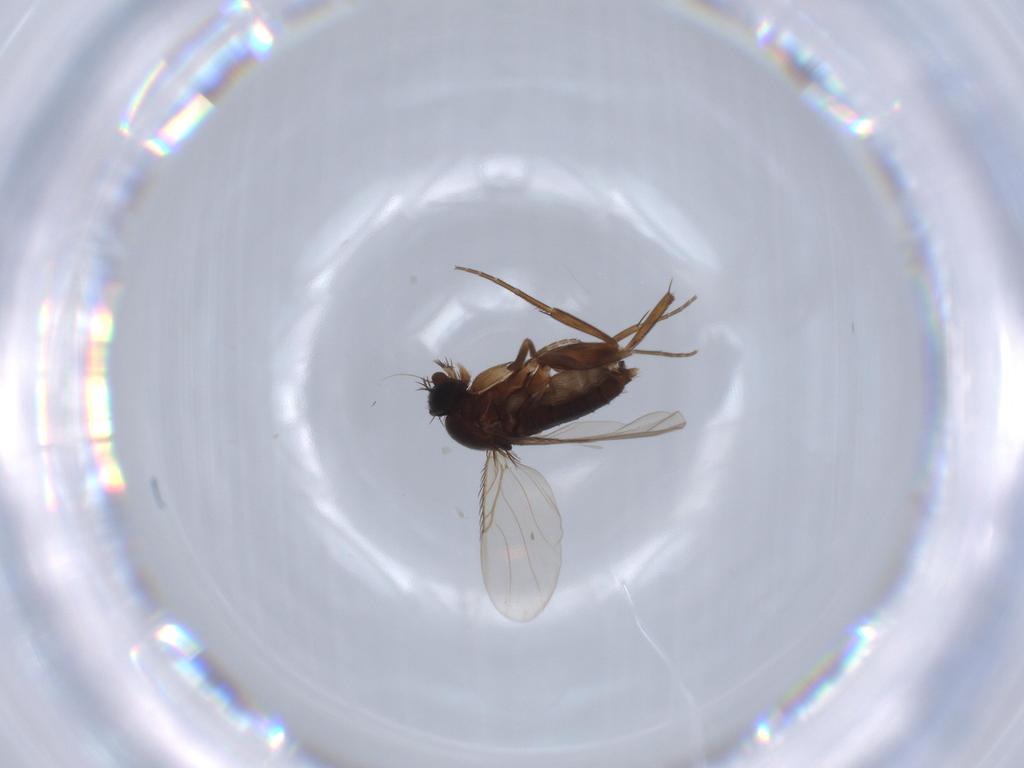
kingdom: Animalia
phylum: Arthropoda
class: Insecta
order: Diptera
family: Phoridae
